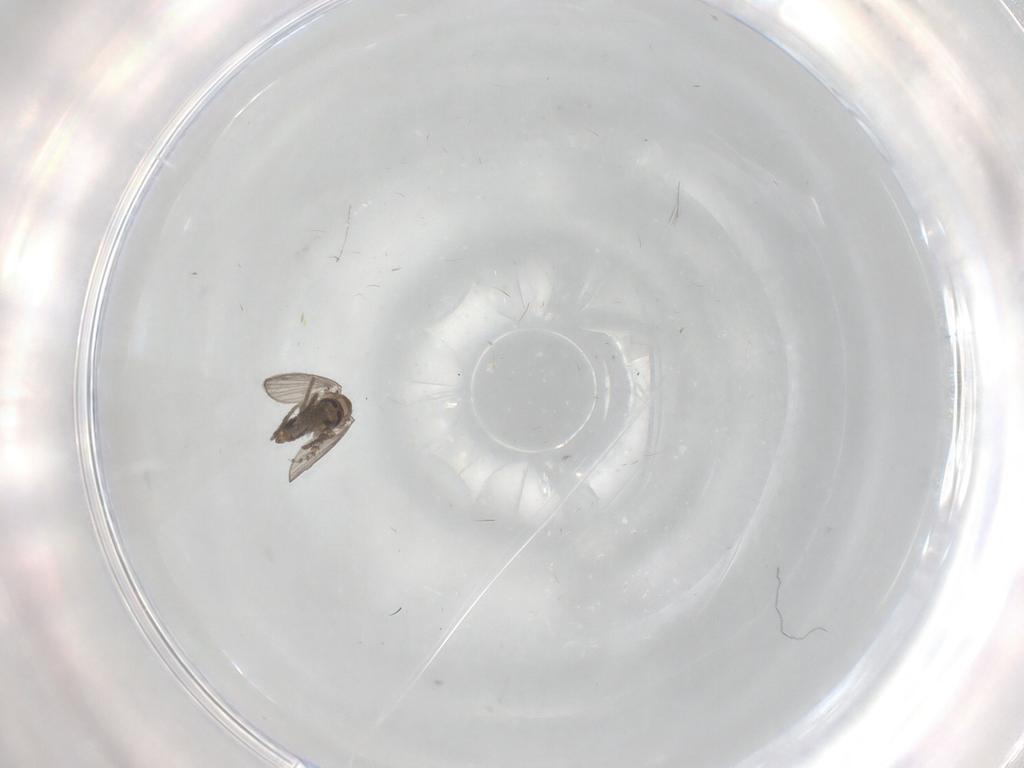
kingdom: Animalia
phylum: Arthropoda
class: Insecta
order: Diptera
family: Psychodidae
